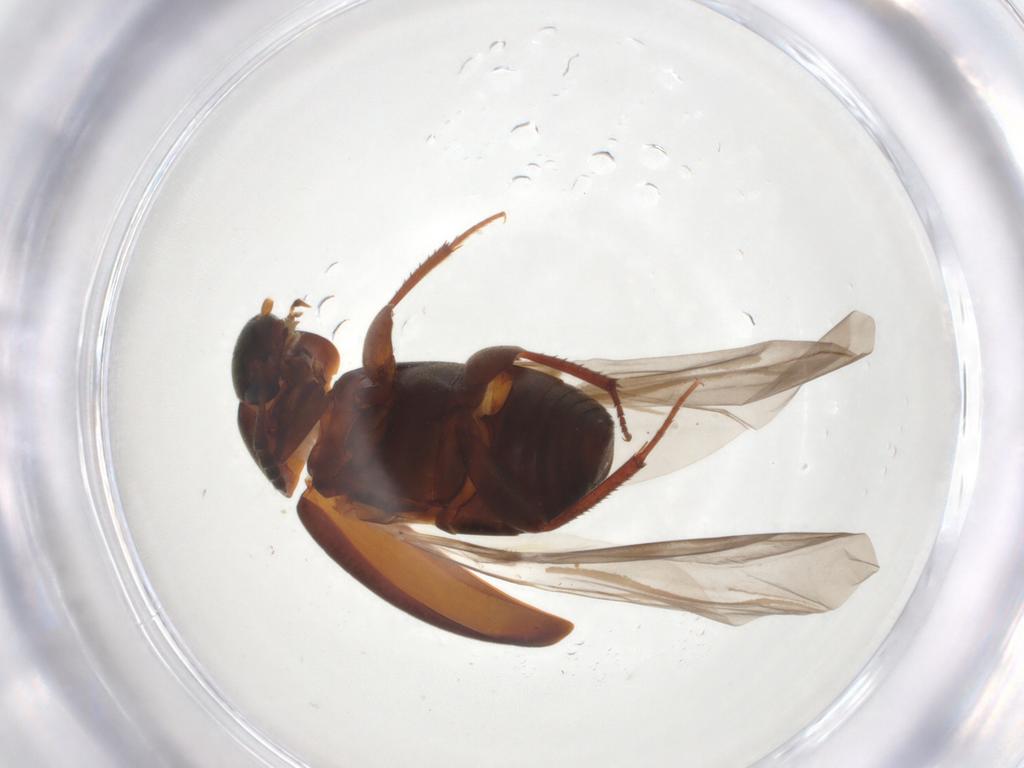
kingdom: Animalia
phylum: Arthropoda
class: Insecta
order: Coleoptera
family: Leiodidae
